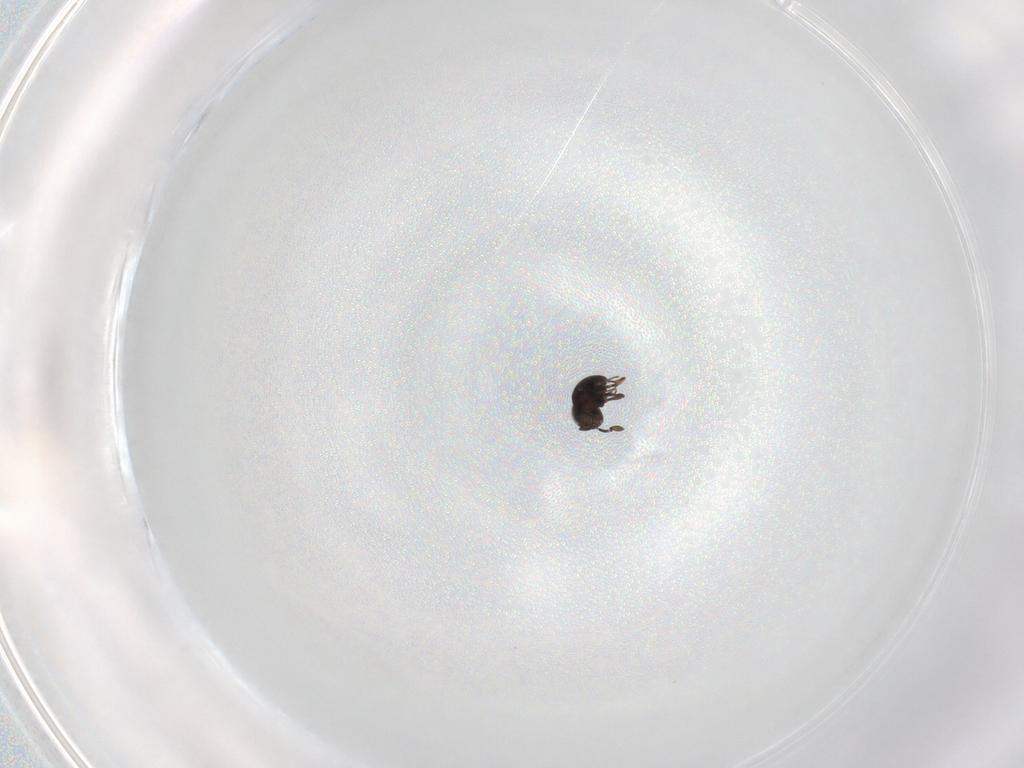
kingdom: Animalia
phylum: Arthropoda
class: Insecta
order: Hymenoptera
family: Scelionidae
